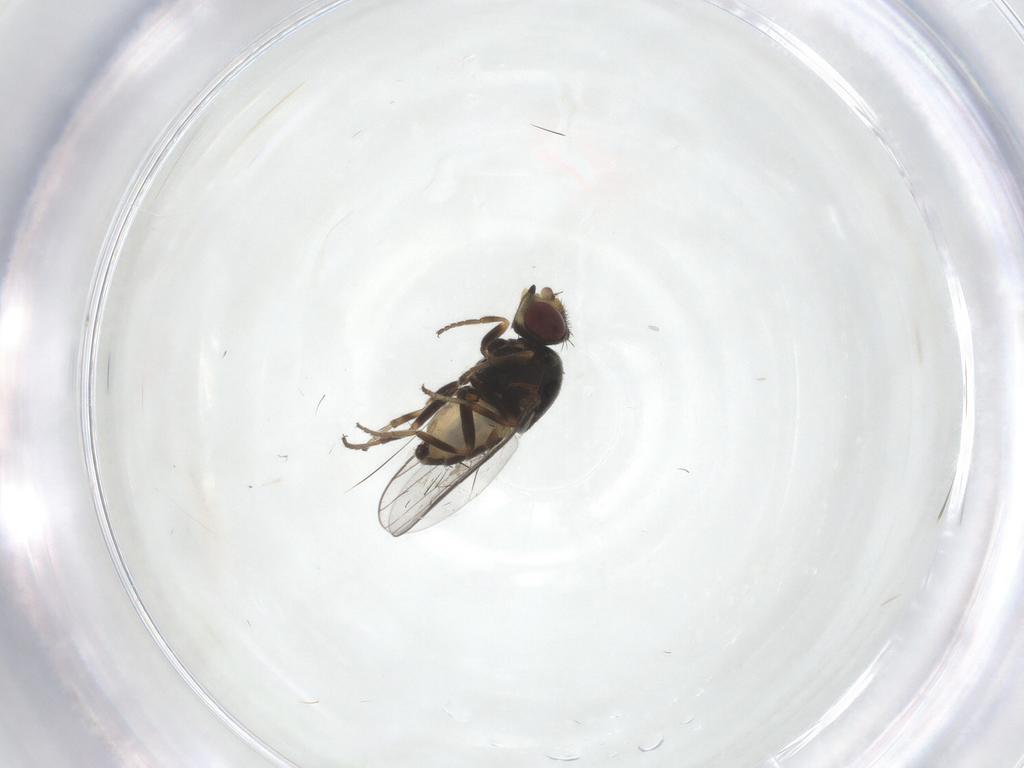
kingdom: Animalia
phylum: Arthropoda
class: Insecta
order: Diptera
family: Chloropidae
